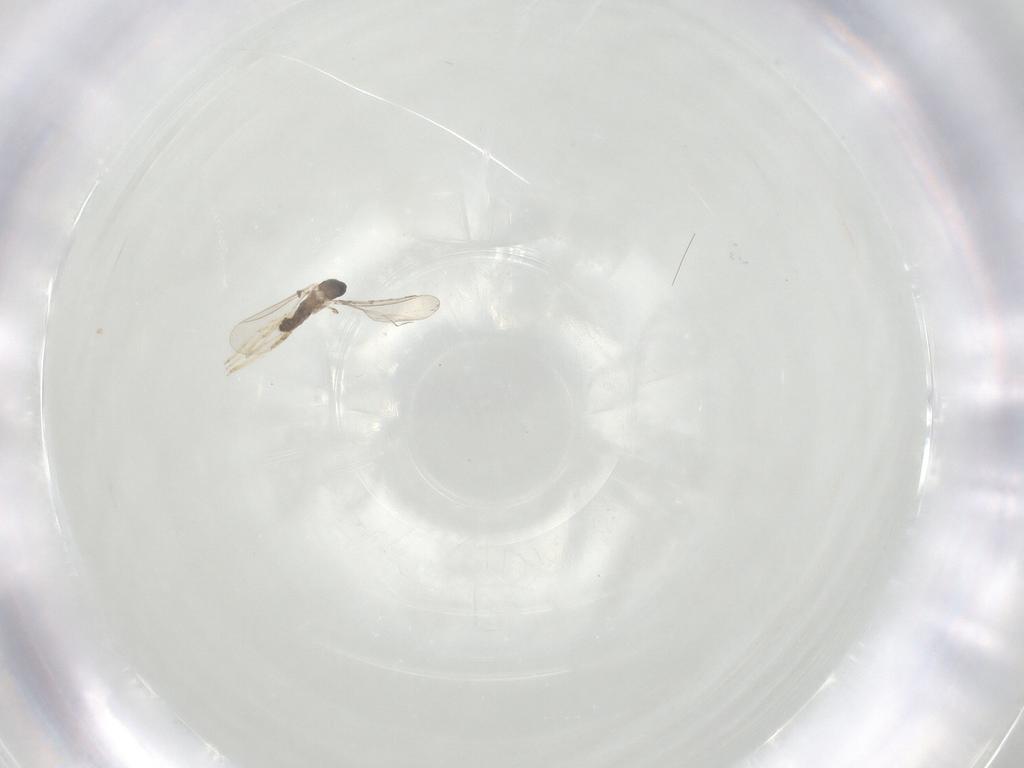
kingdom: Animalia
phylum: Arthropoda
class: Insecta
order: Diptera
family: Cecidomyiidae
